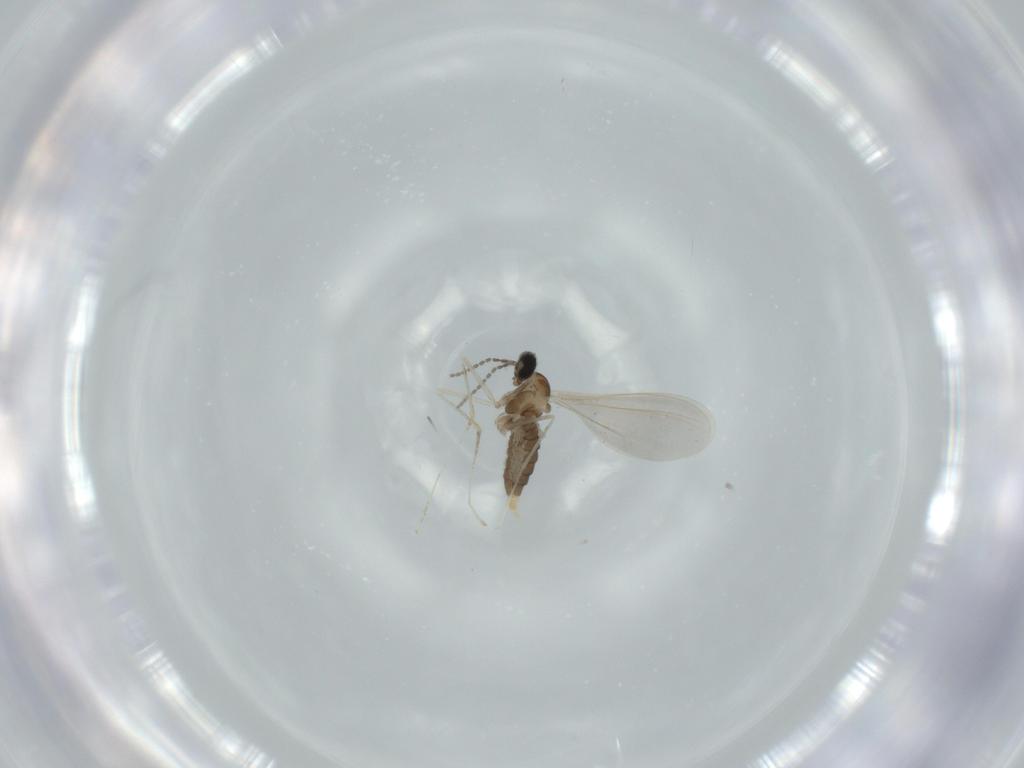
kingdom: Animalia
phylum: Arthropoda
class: Insecta
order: Diptera
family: Cecidomyiidae
